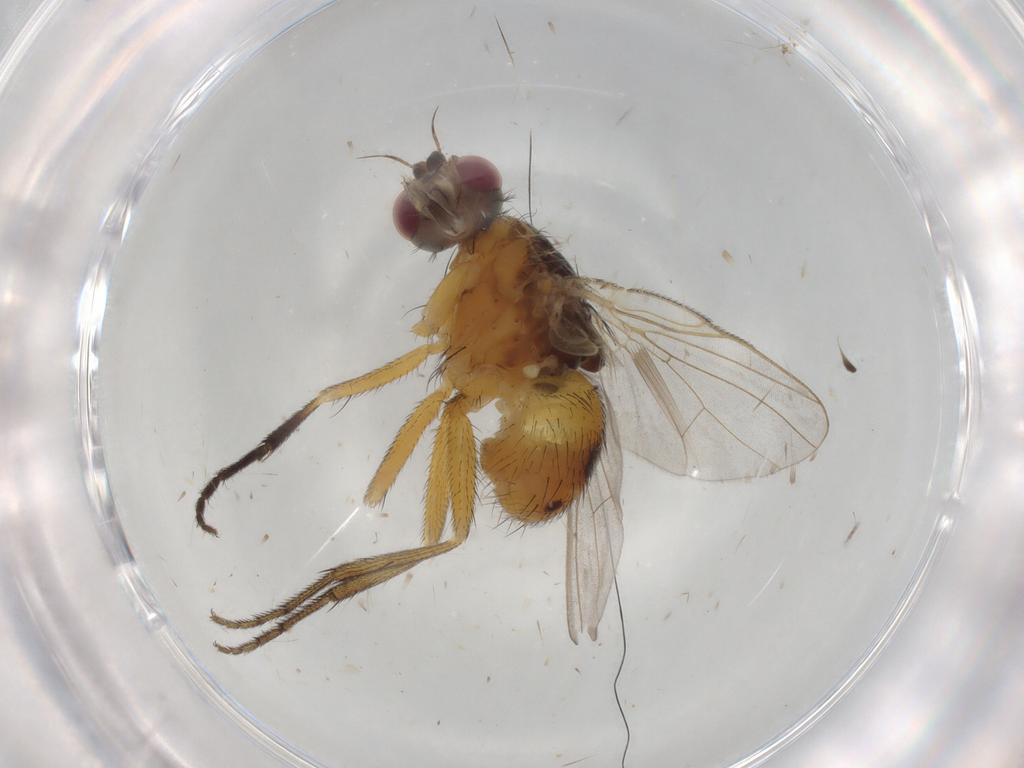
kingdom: Animalia
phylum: Arthropoda
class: Insecta
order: Diptera
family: Muscidae
